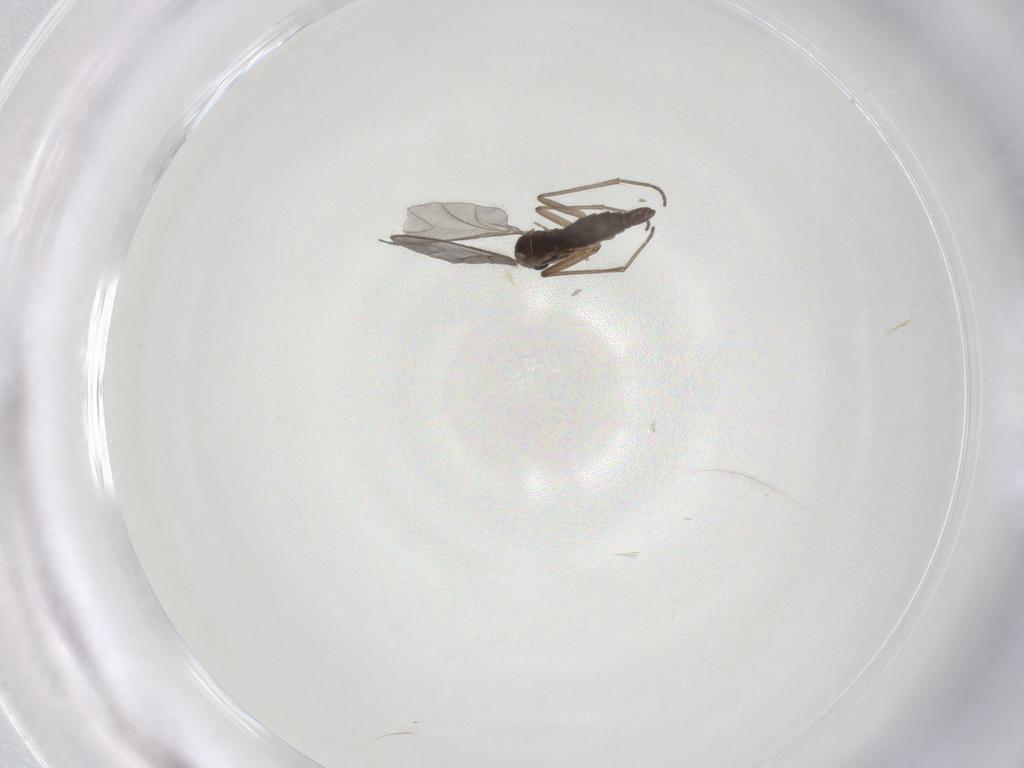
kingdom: Animalia
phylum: Arthropoda
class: Insecta
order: Diptera
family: Sciaridae
